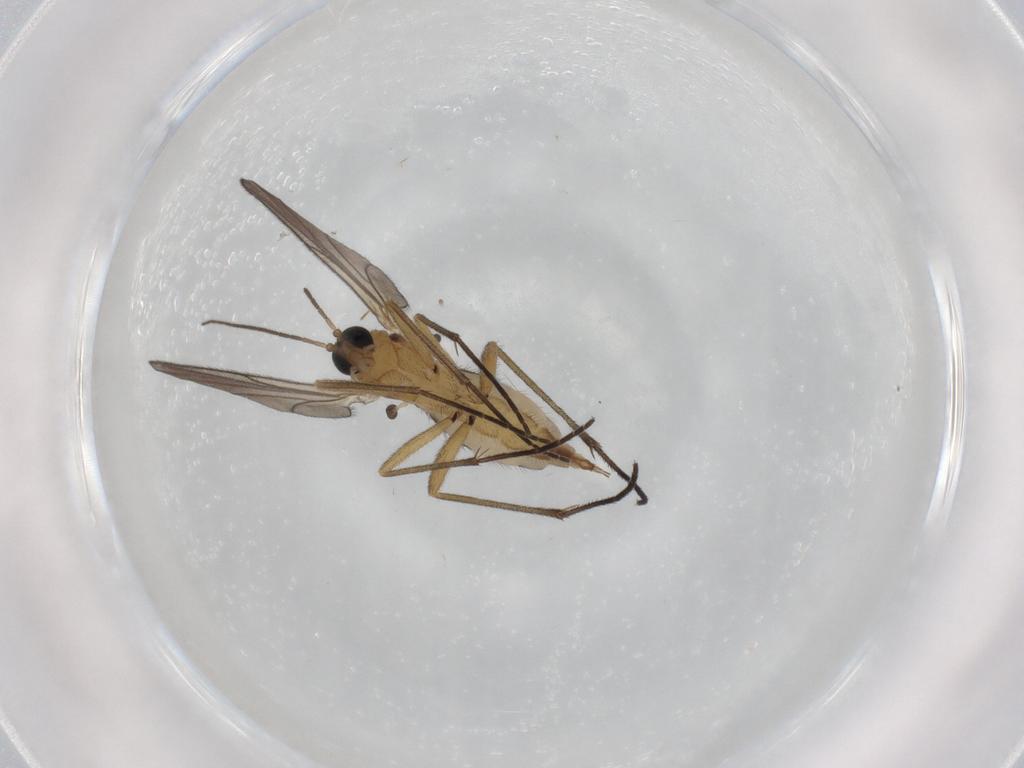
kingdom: Animalia
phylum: Arthropoda
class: Insecta
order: Diptera
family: Sciaridae
